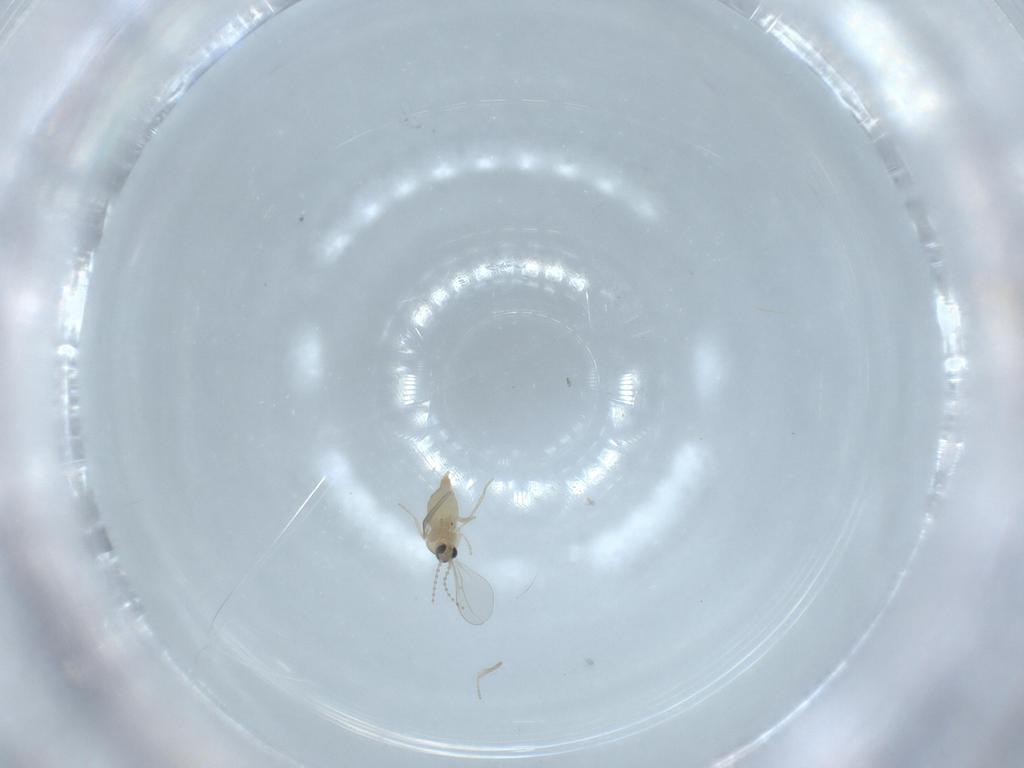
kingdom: Animalia
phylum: Arthropoda
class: Insecta
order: Diptera
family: Cecidomyiidae
